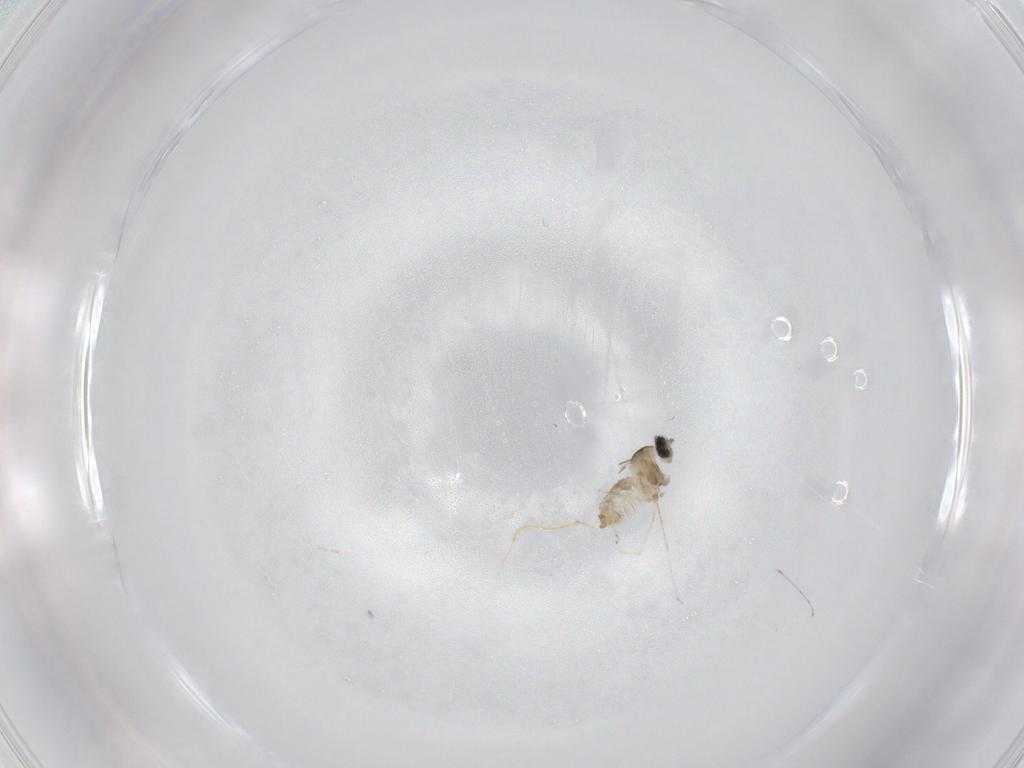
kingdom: Animalia
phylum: Arthropoda
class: Insecta
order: Diptera
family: Cecidomyiidae
